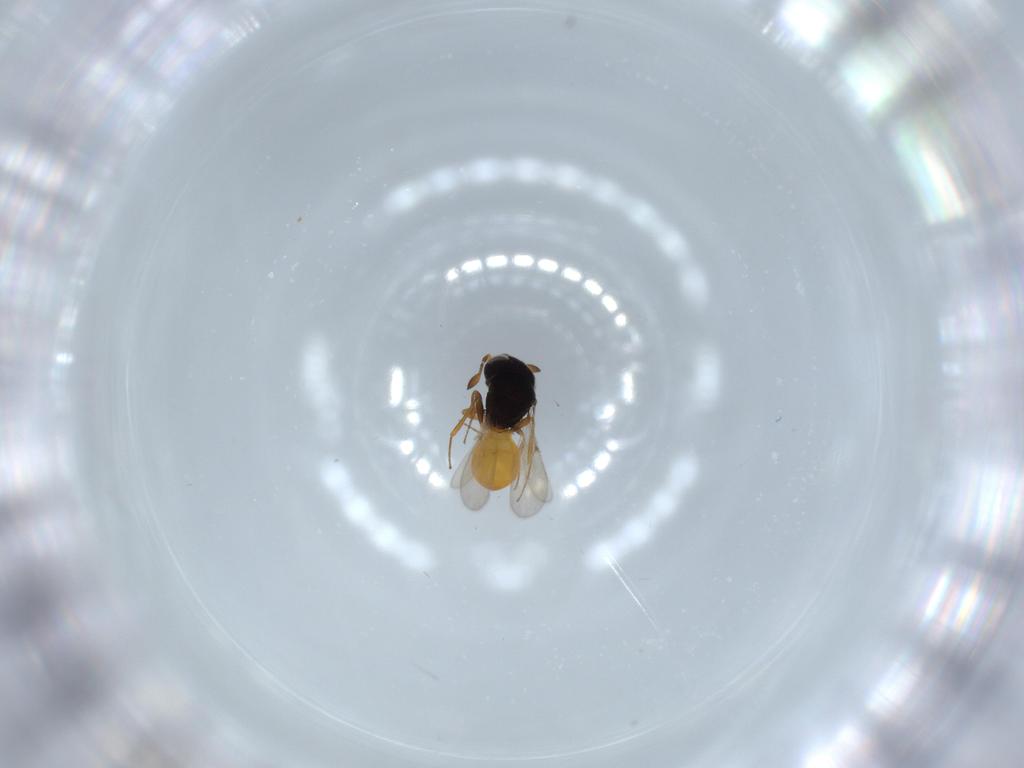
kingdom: Animalia
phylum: Arthropoda
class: Insecta
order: Hymenoptera
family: Scelionidae
